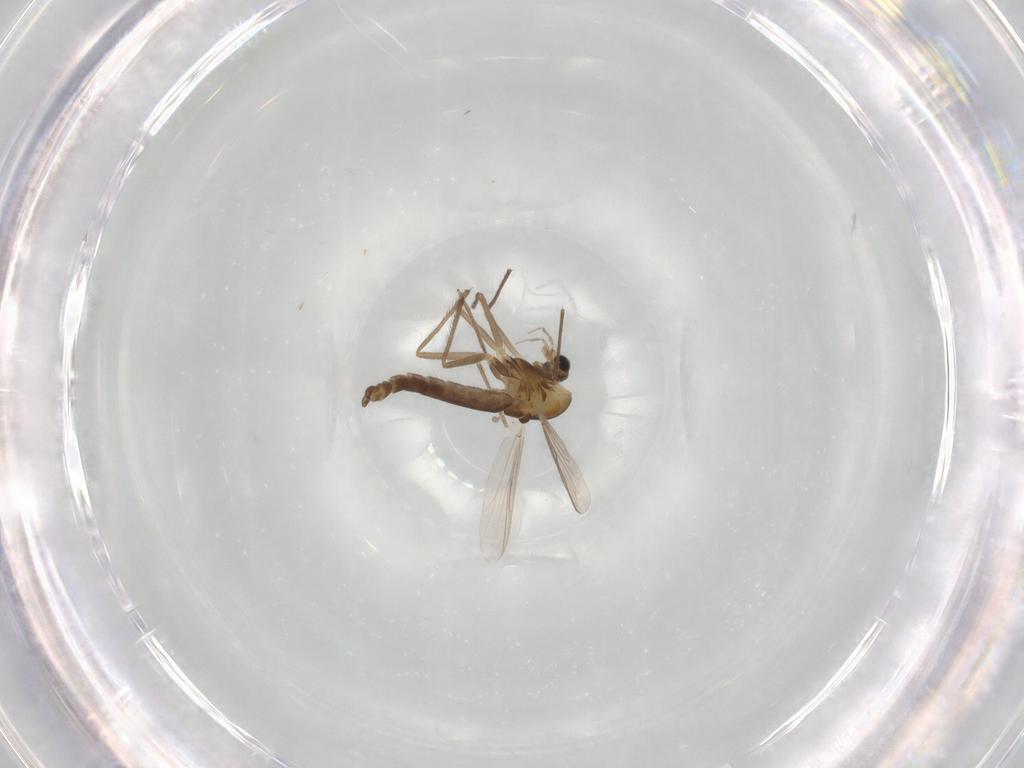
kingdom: Animalia
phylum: Arthropoda
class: Insecta
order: Diptera
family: Chironomidae
